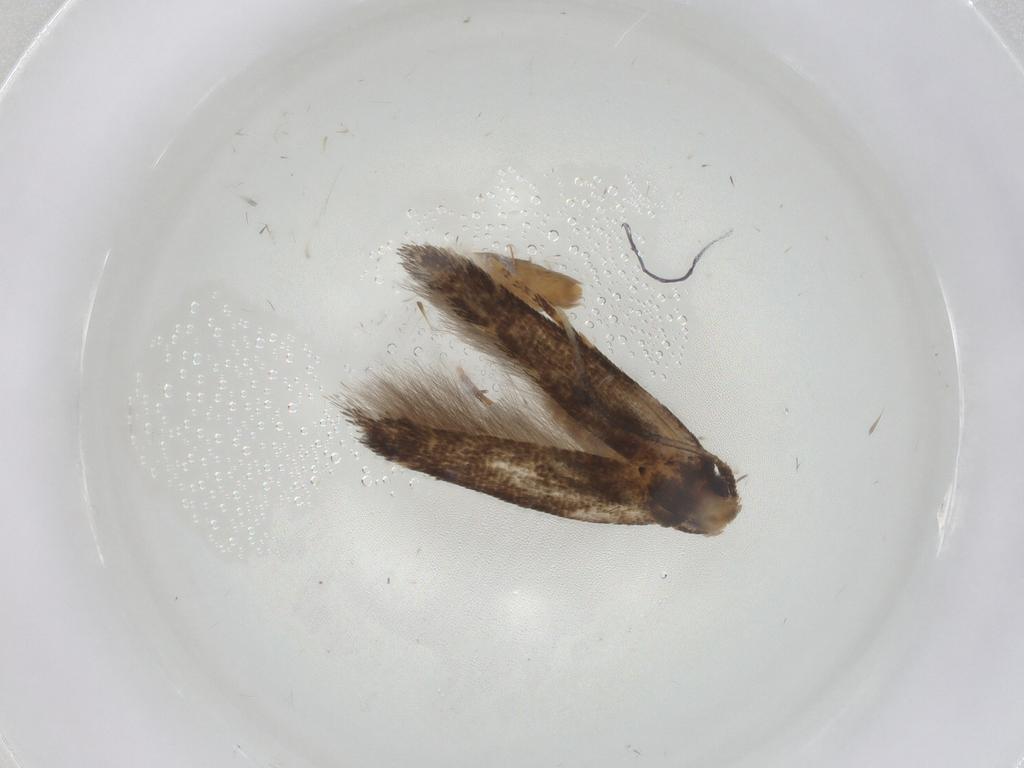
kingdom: Animalia
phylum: Arthropoda
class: Insecta
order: Lepidoptera
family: Cosmopterigidae
